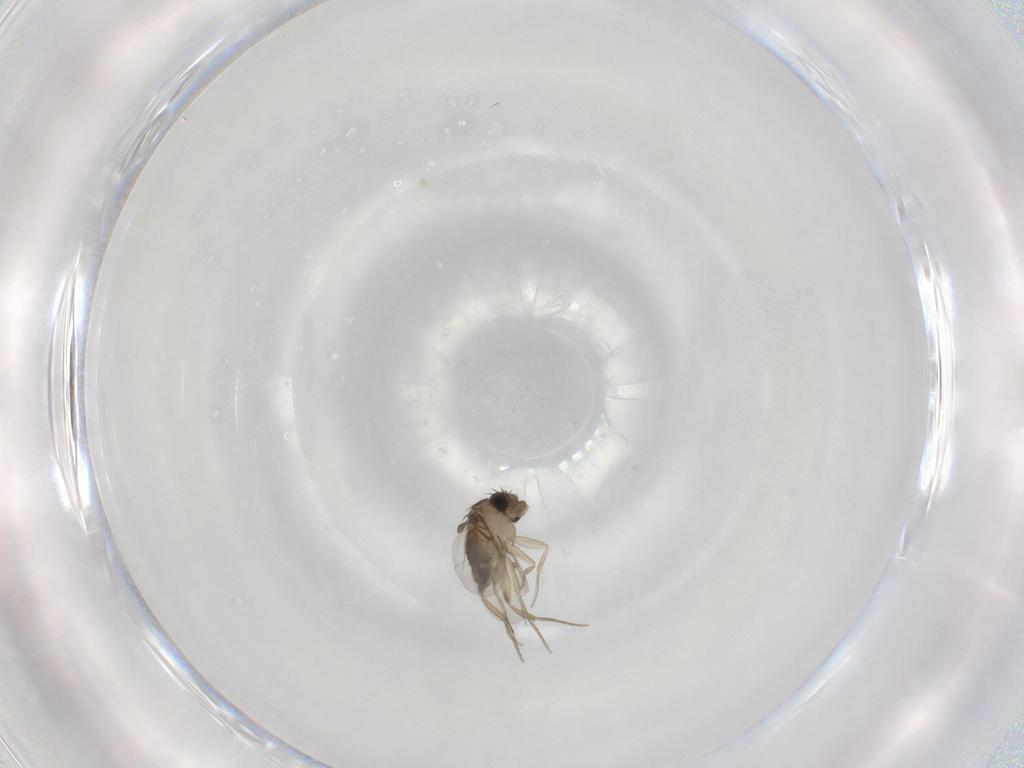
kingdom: Animalia
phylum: Arthropoda
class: Insecta
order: Diptera
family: Phoridae
